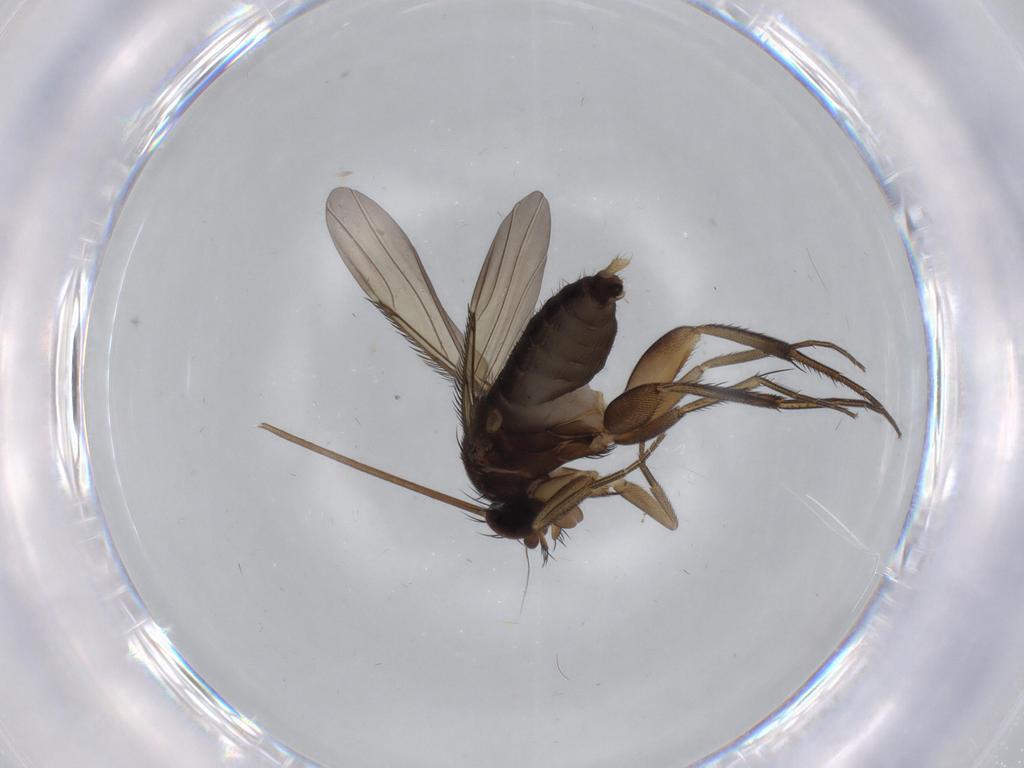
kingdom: Animalia
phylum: Arthropoda
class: Insecta
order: Diptera
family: Phoridae
